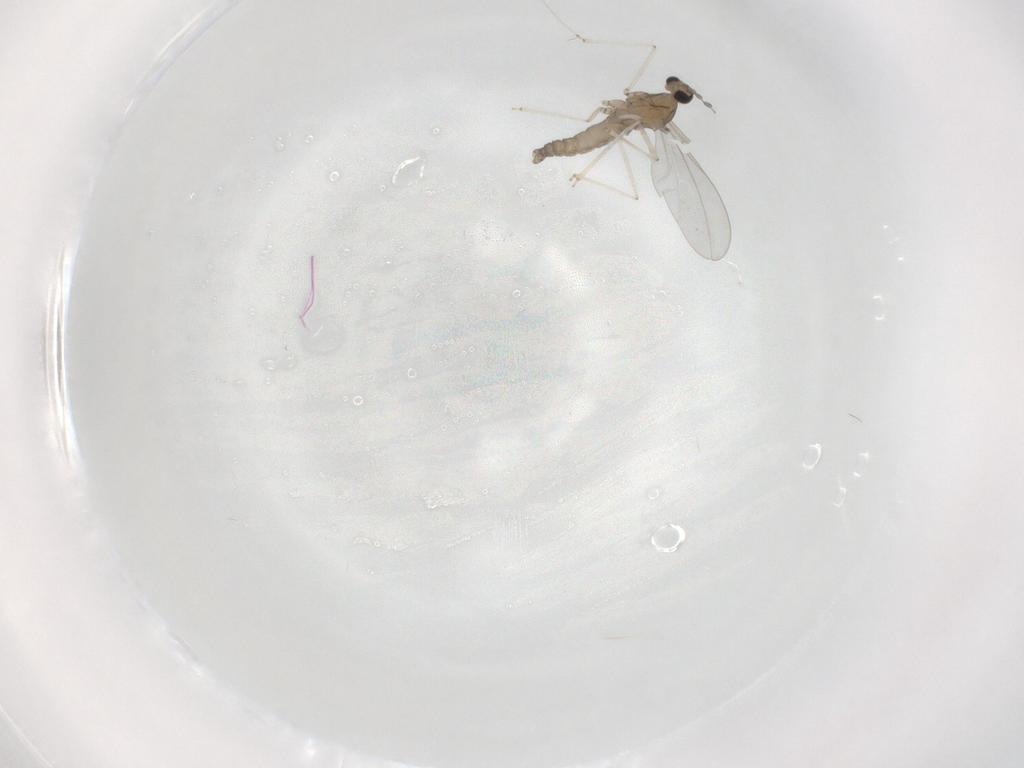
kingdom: Animalia
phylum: Arthropoda
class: Insecta
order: Diptera
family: Cecidomyiidae
